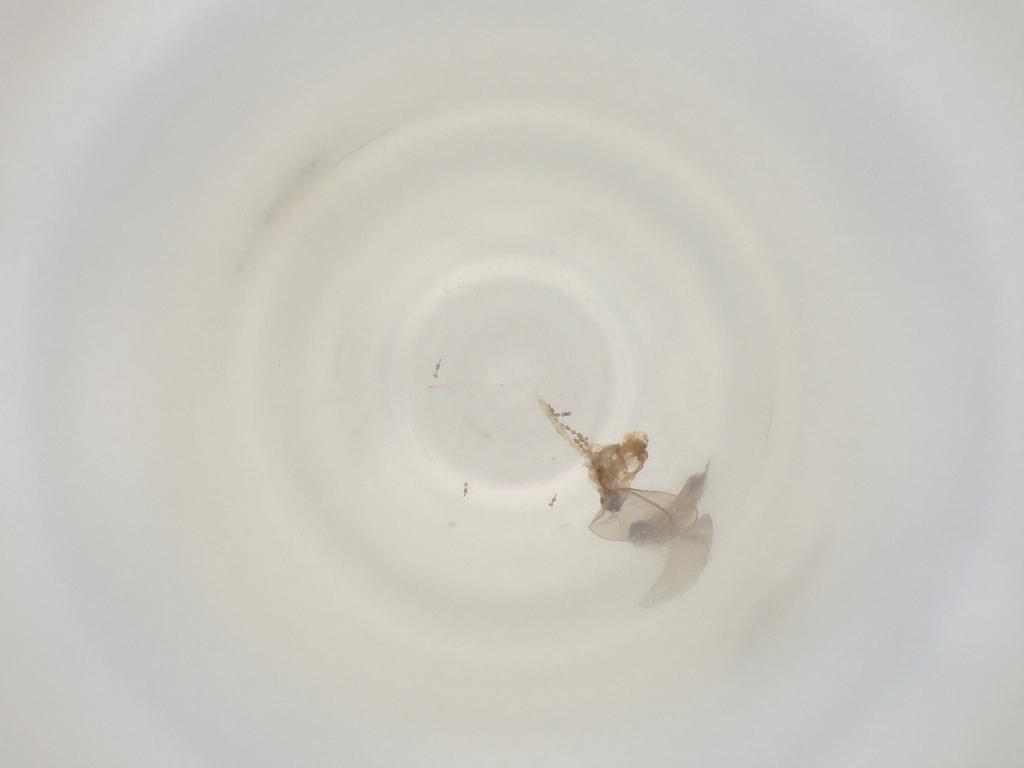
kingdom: Animalia
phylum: Arthropoda
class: Insecta
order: Diptera
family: Cecidomyiidae
